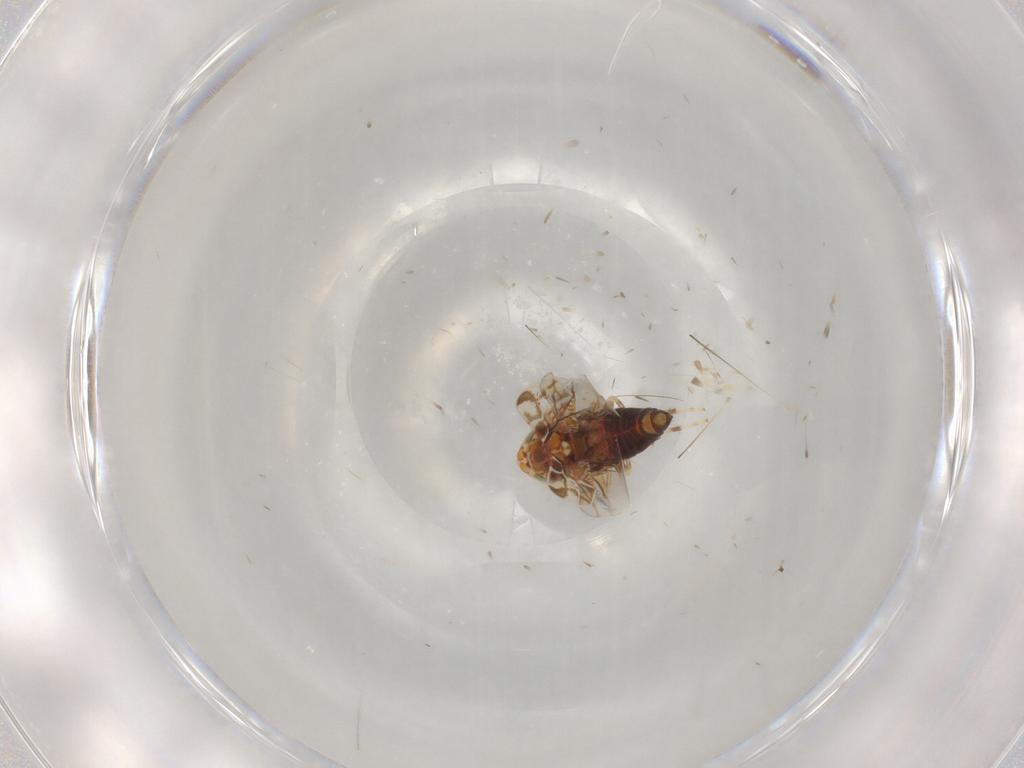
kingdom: Animalia
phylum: Arthropoda
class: Insecta
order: Hemiptera
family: Cicadellidae
